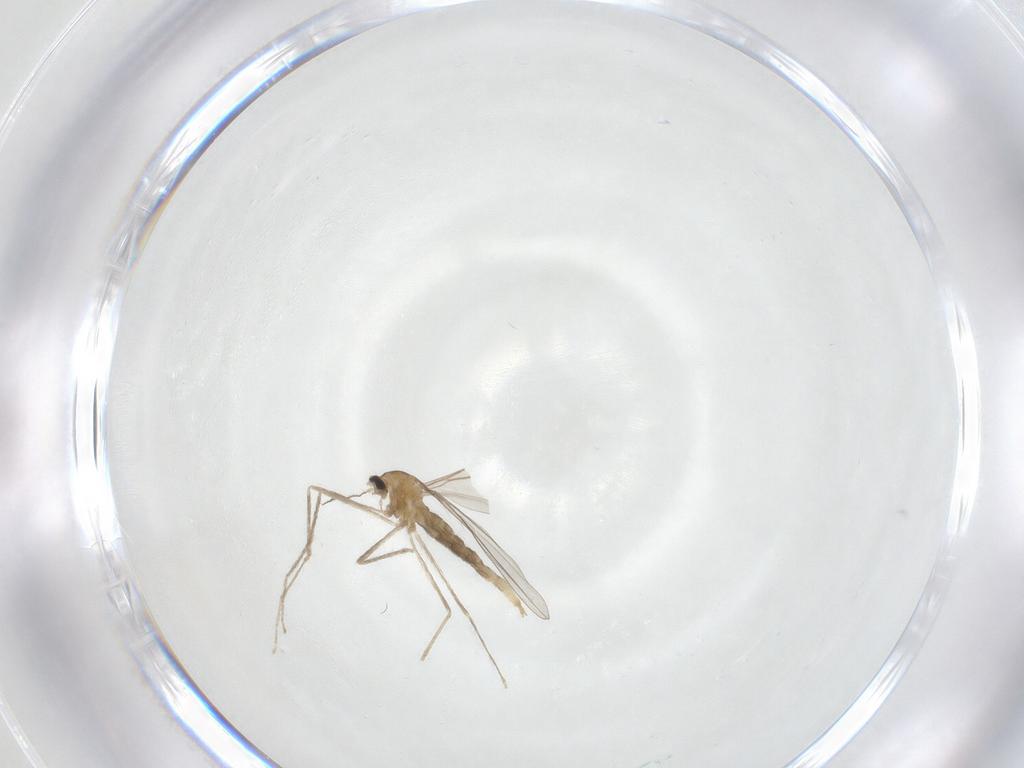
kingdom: Animalia
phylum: Arthropoda
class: Insecta
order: Diptera
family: Cecidomyiidae
